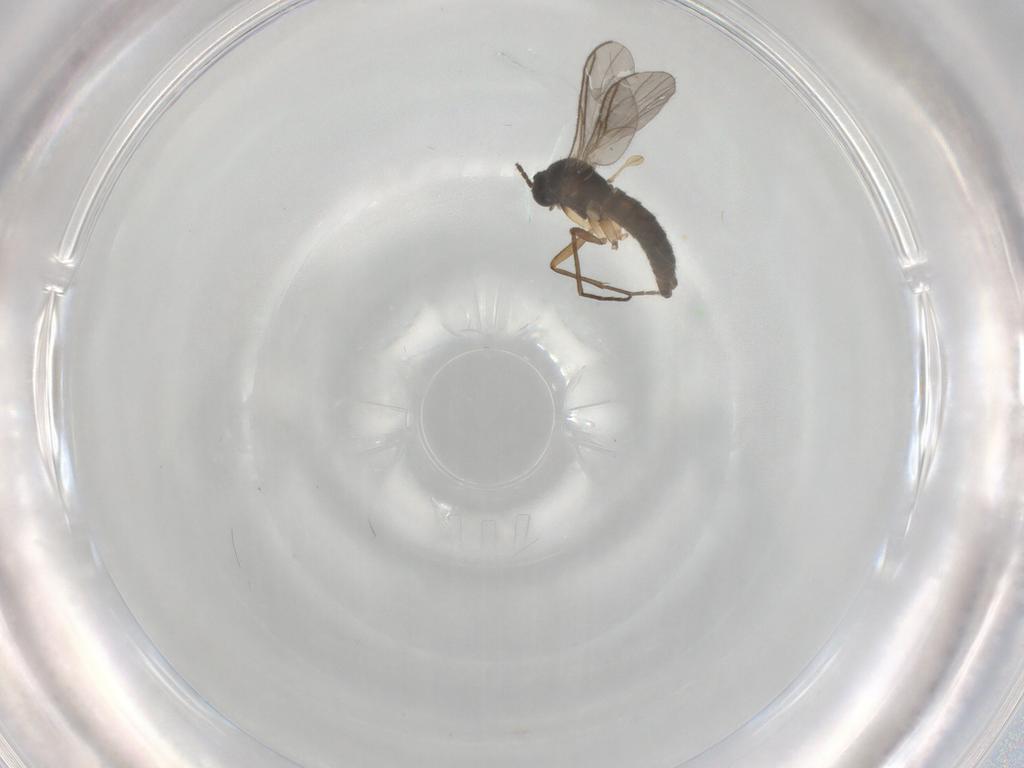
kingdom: Animalia
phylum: Arthropoda
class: Insecta
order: Diptera
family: Sciaridae
